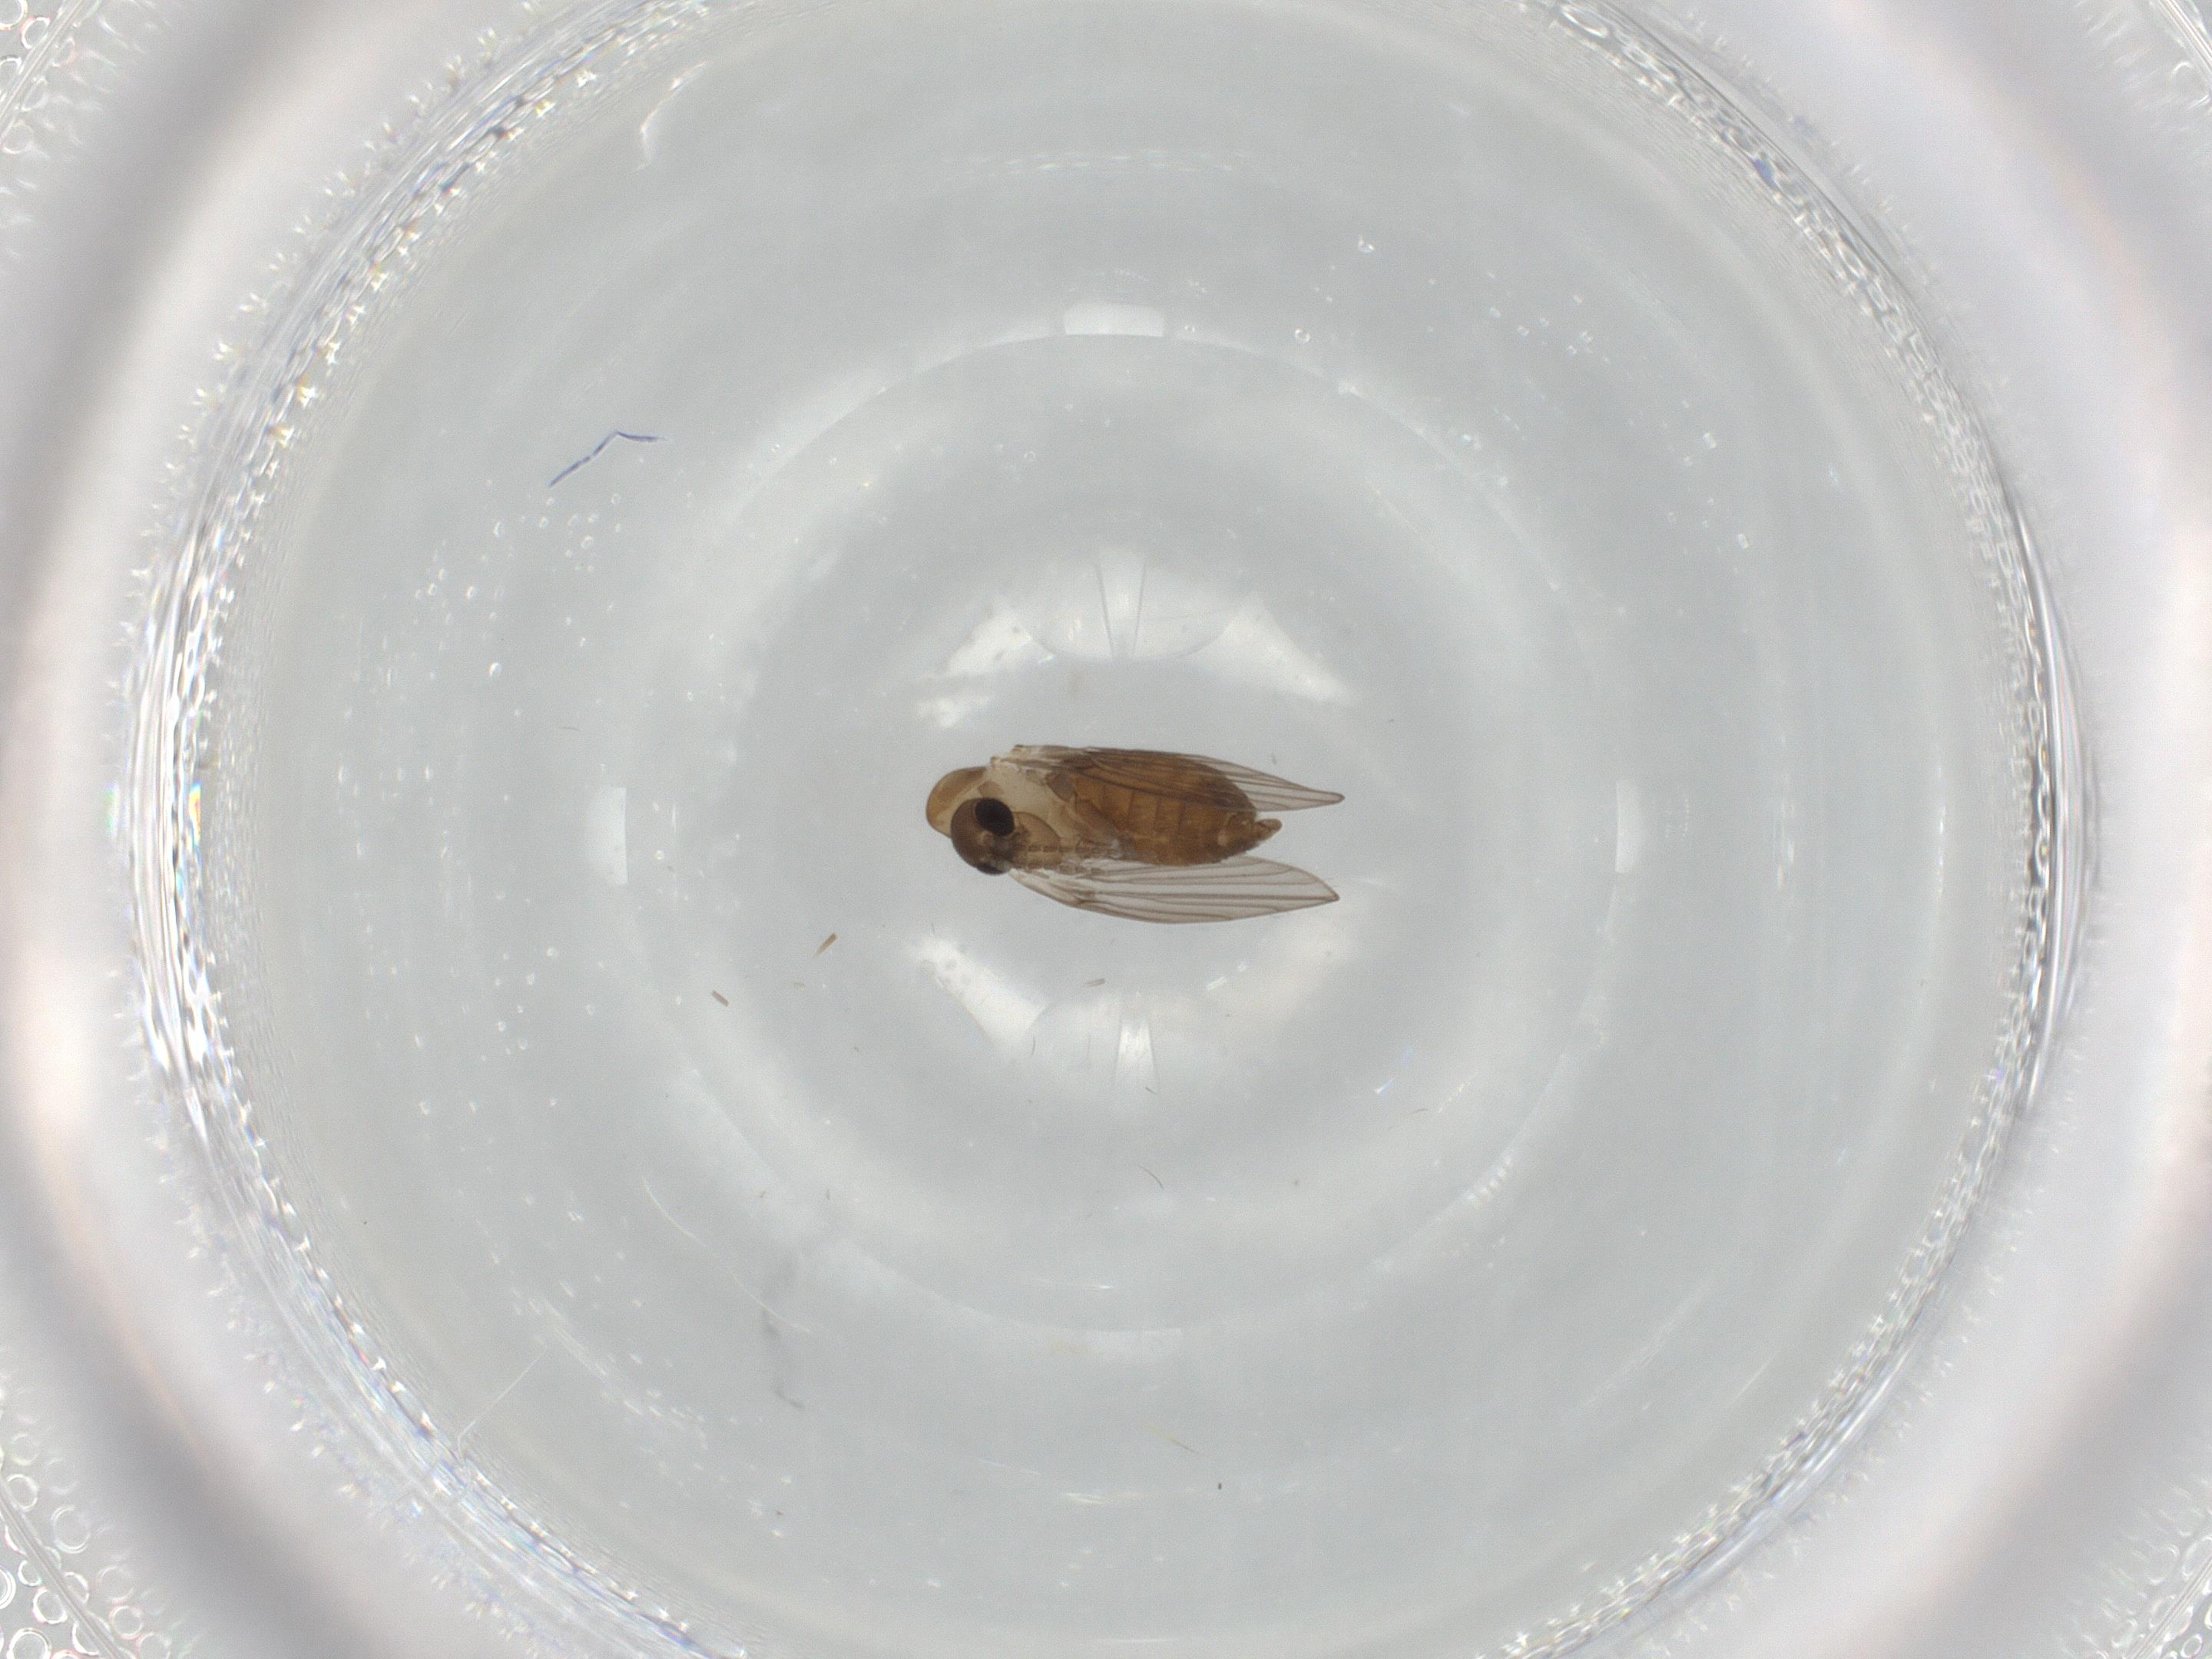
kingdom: Animalia
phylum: Arthropoda
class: Insecta
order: Diptera
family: Psychodidae
